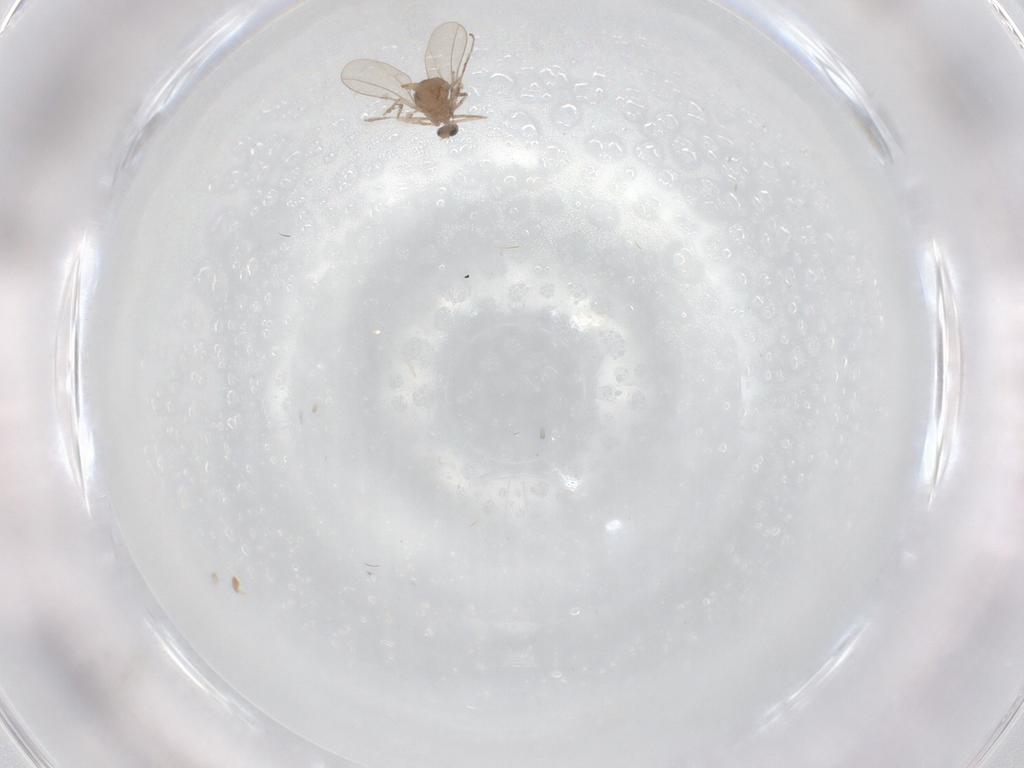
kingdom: Animalia
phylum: Arthropoda
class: Insecta
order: Diptera
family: Cecidomyiidae
